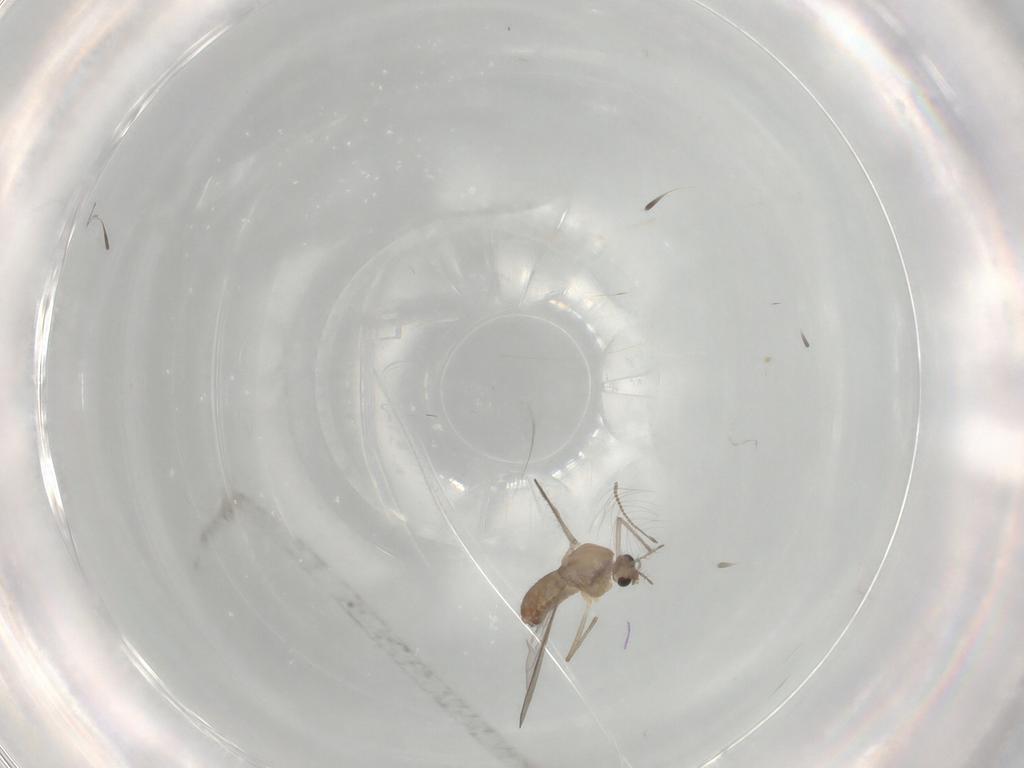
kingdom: Animalia
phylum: Arthropoda
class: Insecta
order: Diptera
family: Chironomidae
